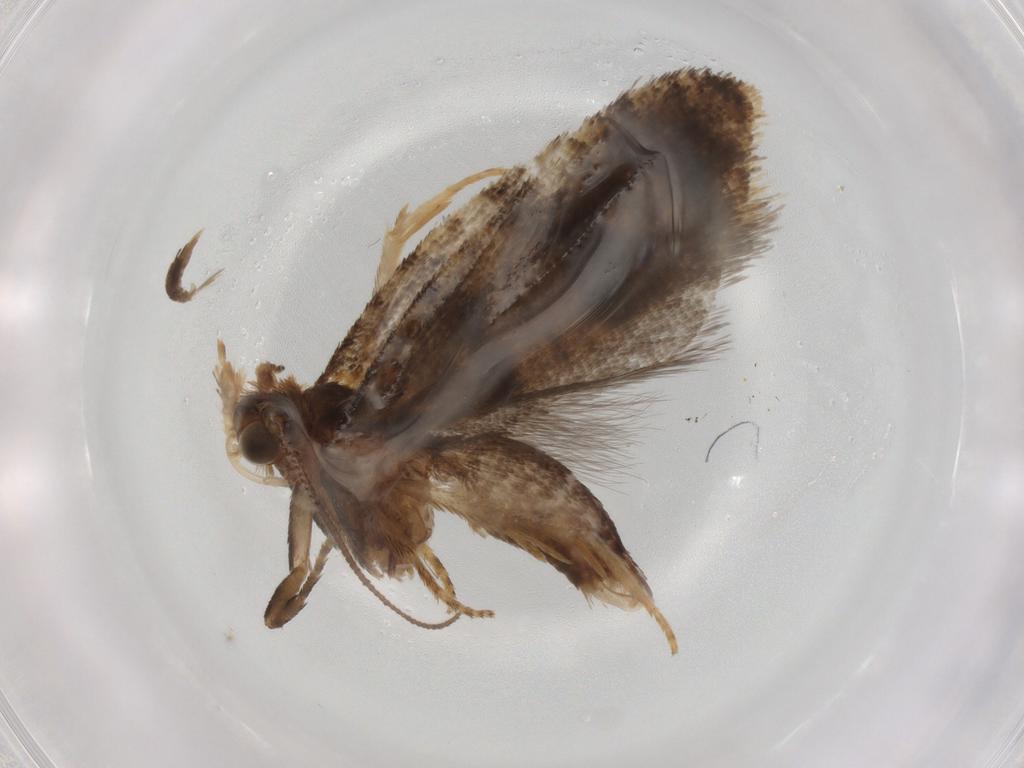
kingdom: Animalia
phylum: Arthropoda
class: Insecta
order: Lepidoptera
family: Tortricidae
